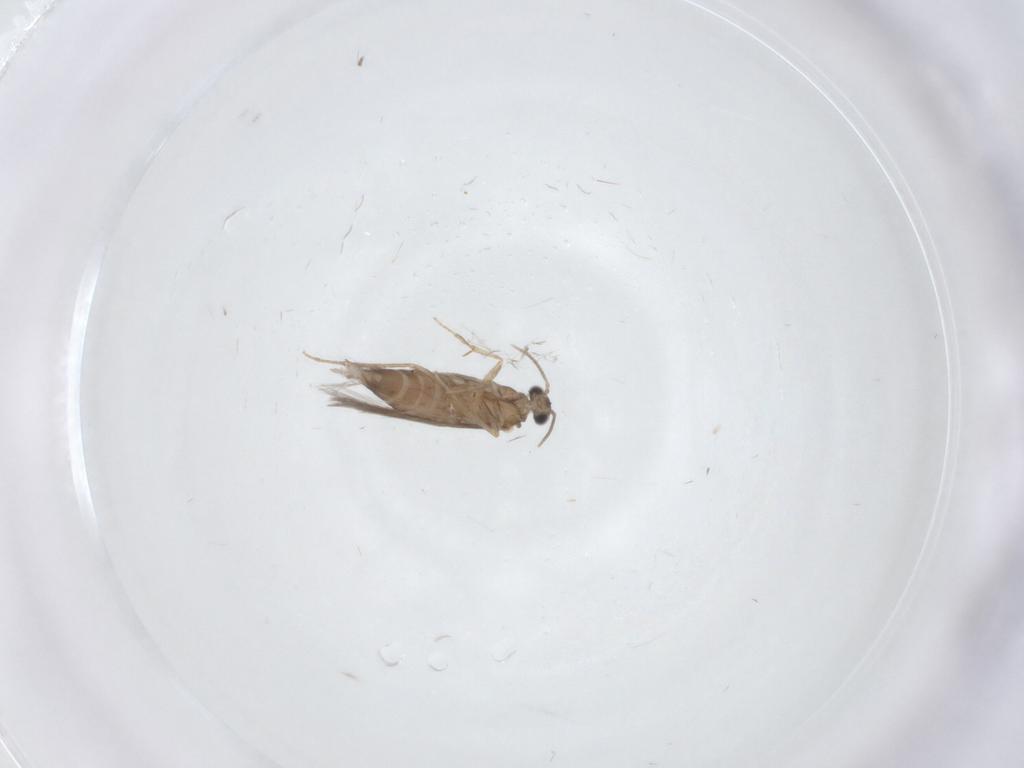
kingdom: Animalia
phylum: Arthropoda
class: Insecta
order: Trichoptera
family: Hydroptilidae
